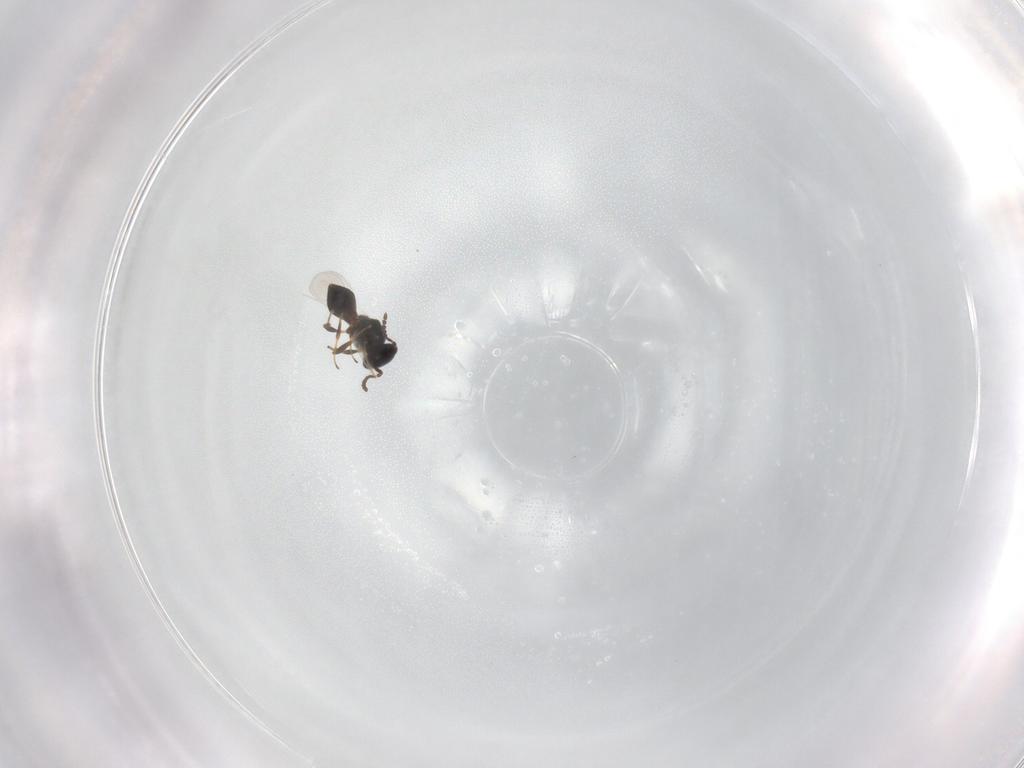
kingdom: Animalia
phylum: Arthropoda
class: Insecta
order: Hymenoptera
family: Platygastridae
